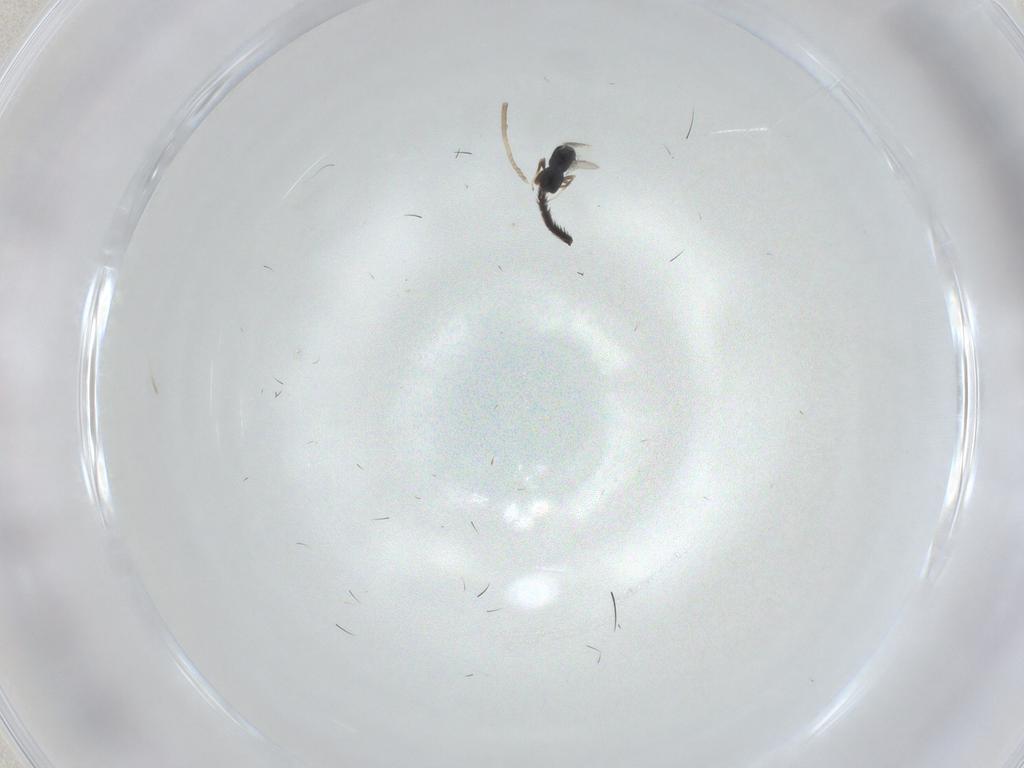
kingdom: Animalia
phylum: Arthropoda
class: Insecta
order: Hymenoptera
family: Scelionidae
